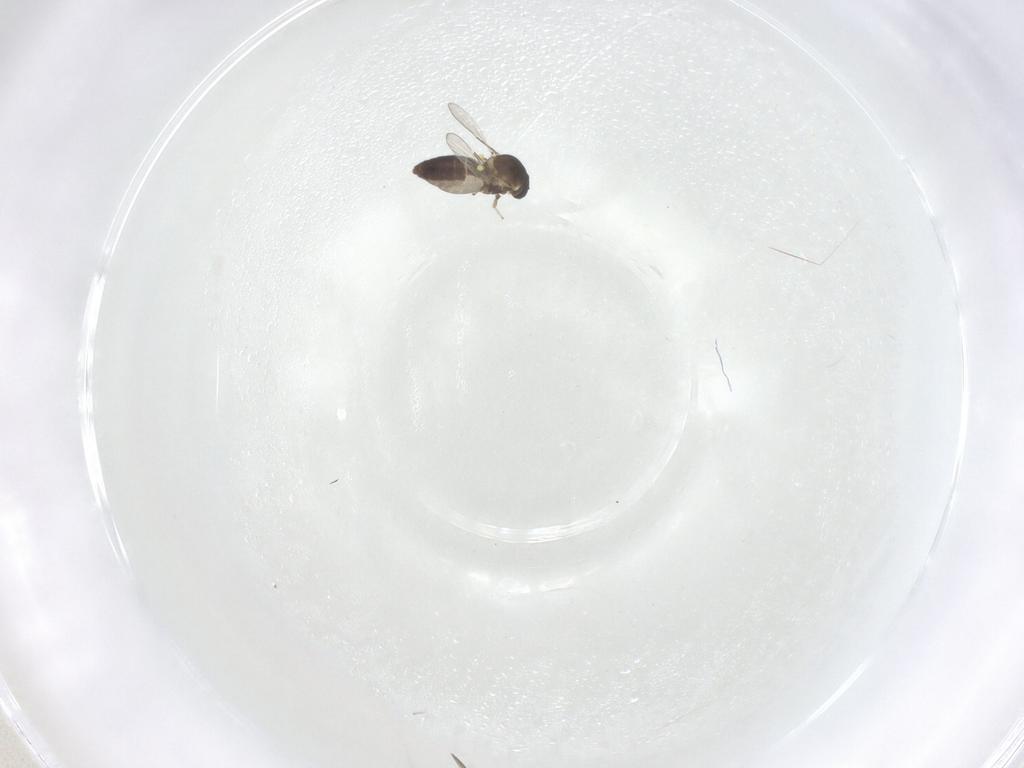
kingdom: Animalia
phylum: Arthropoda
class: Insecta
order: Diptera
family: Ceratopogonidae
